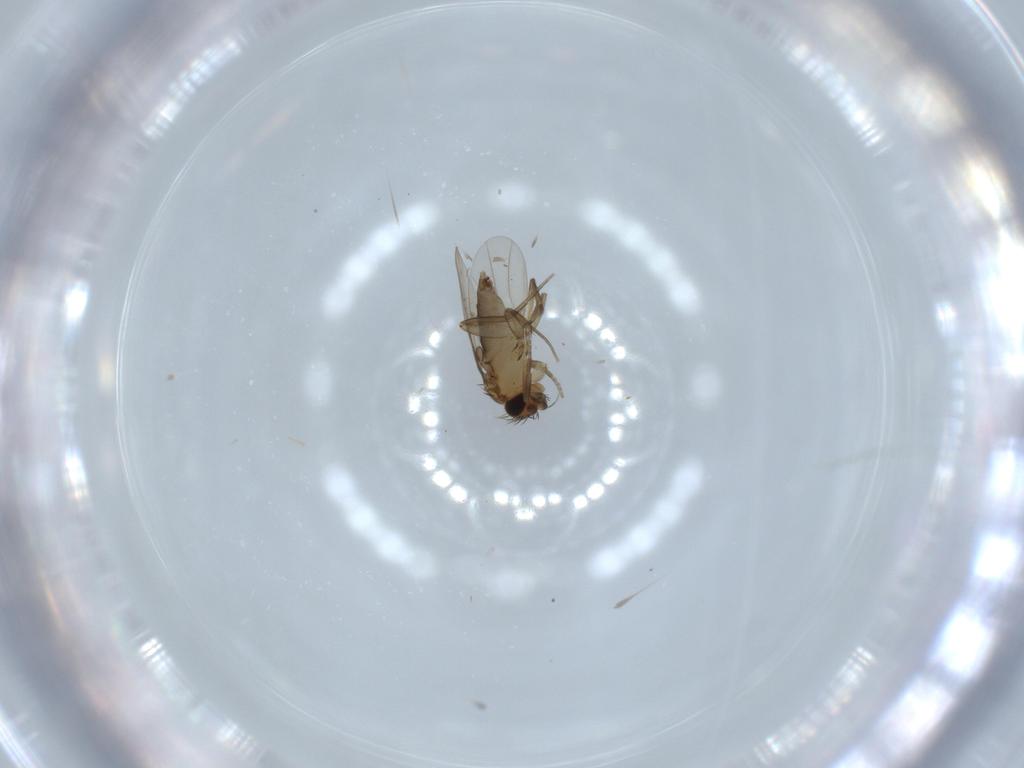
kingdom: Animalia
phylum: Arthropoda
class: Insecta
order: Diptera
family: Phoridae
